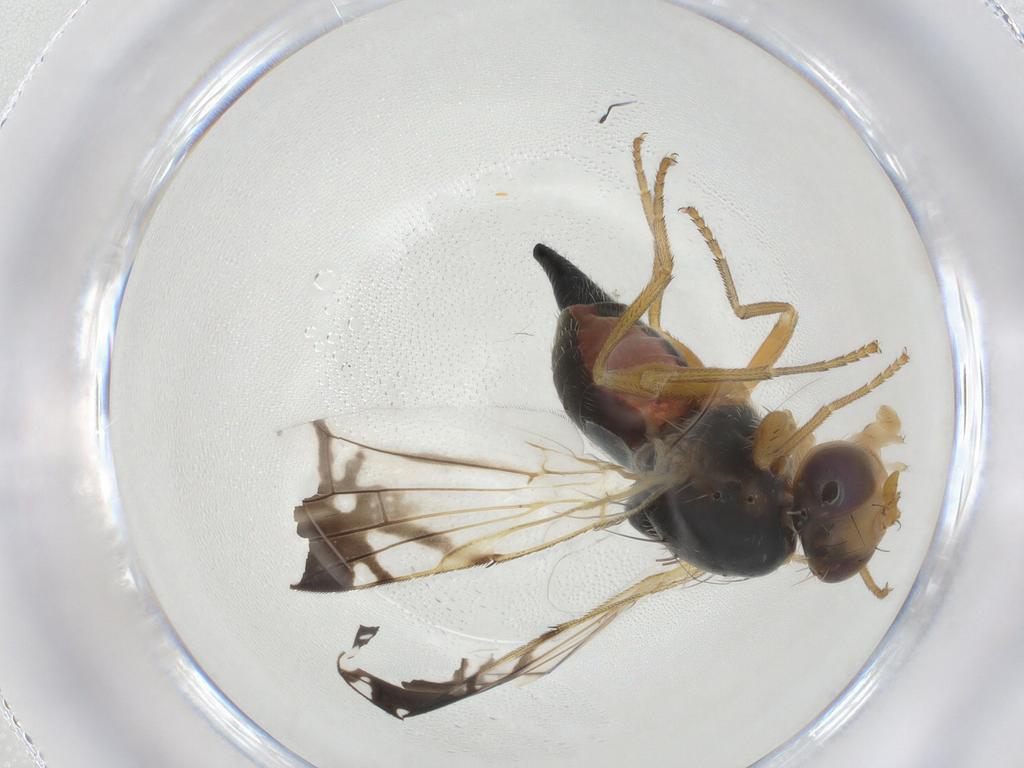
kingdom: Animalia
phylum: Arthropoda
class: Insecta
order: Diptera
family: Tephritidae
